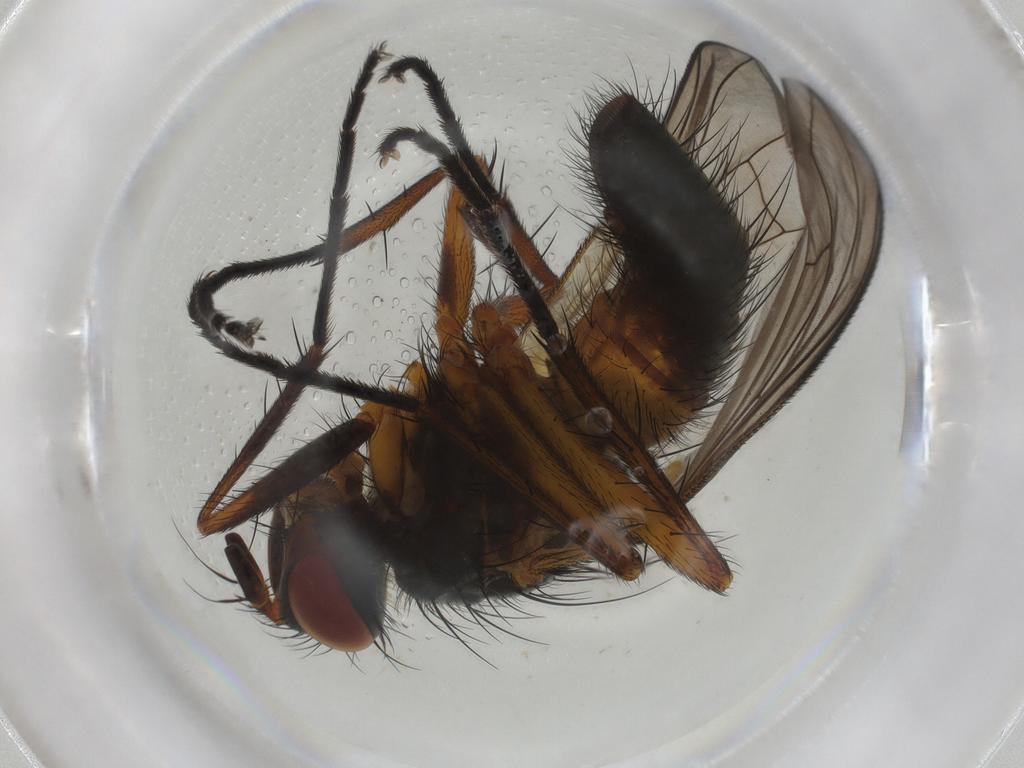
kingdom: Animalia
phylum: Arthropoda
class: Insecta
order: Diptera
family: Tachinidae
